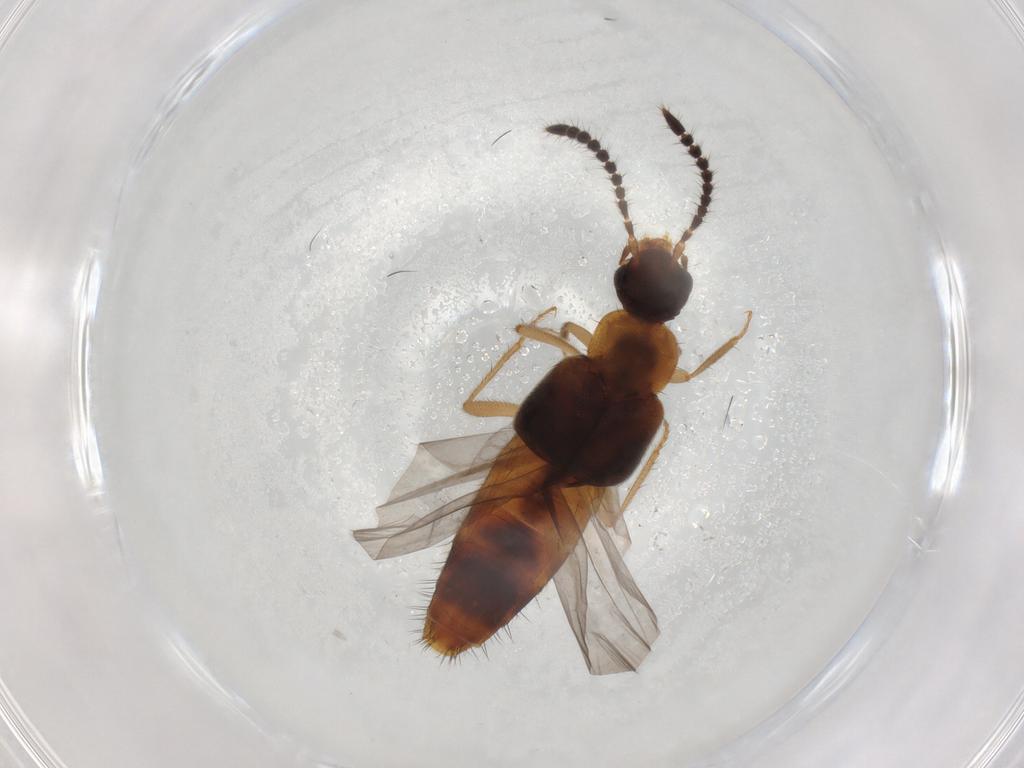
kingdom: Animalia
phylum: Arthropoda
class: Insecta
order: Coleoptera
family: Staphylinidae
